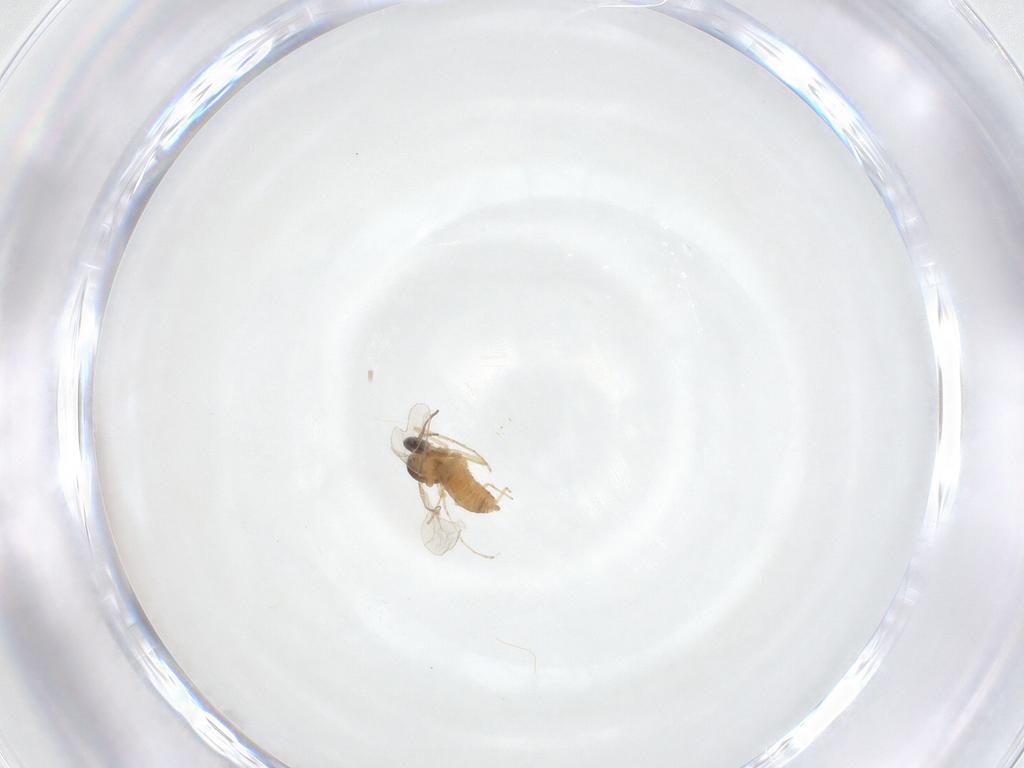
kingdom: Animalia
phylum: Arthropoda
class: Insecta
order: Diptera
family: Cecidomyiidae
